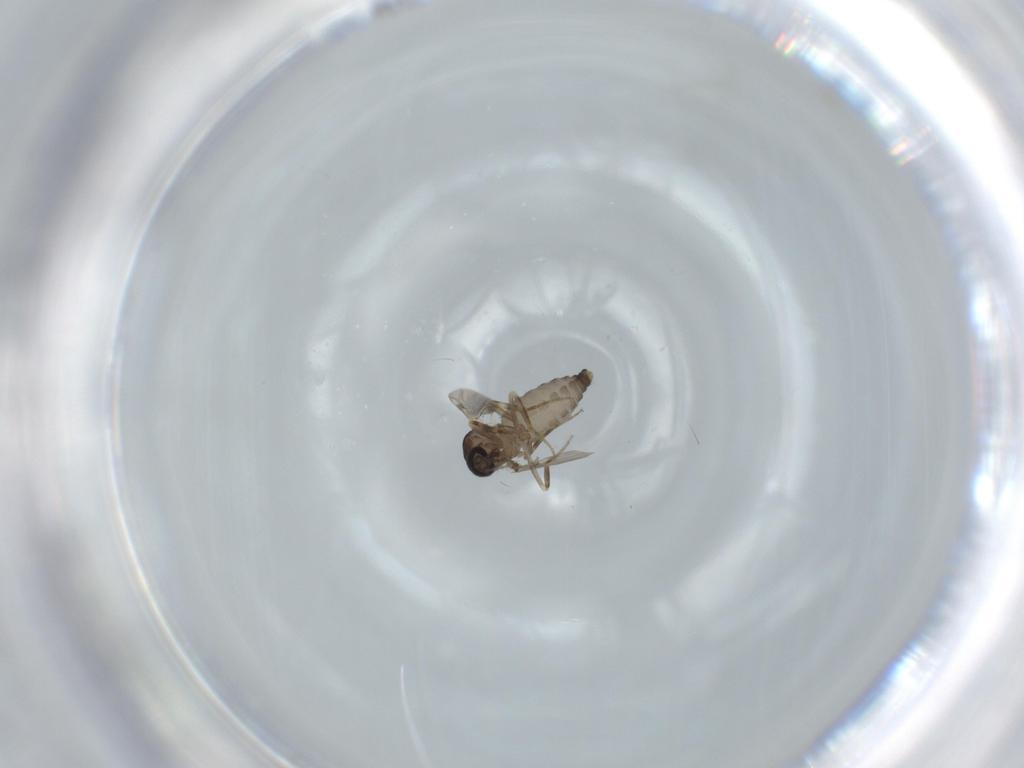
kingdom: Animalia
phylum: Arthropoda
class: Insecta
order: Diptera
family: Ceratopogonidae
